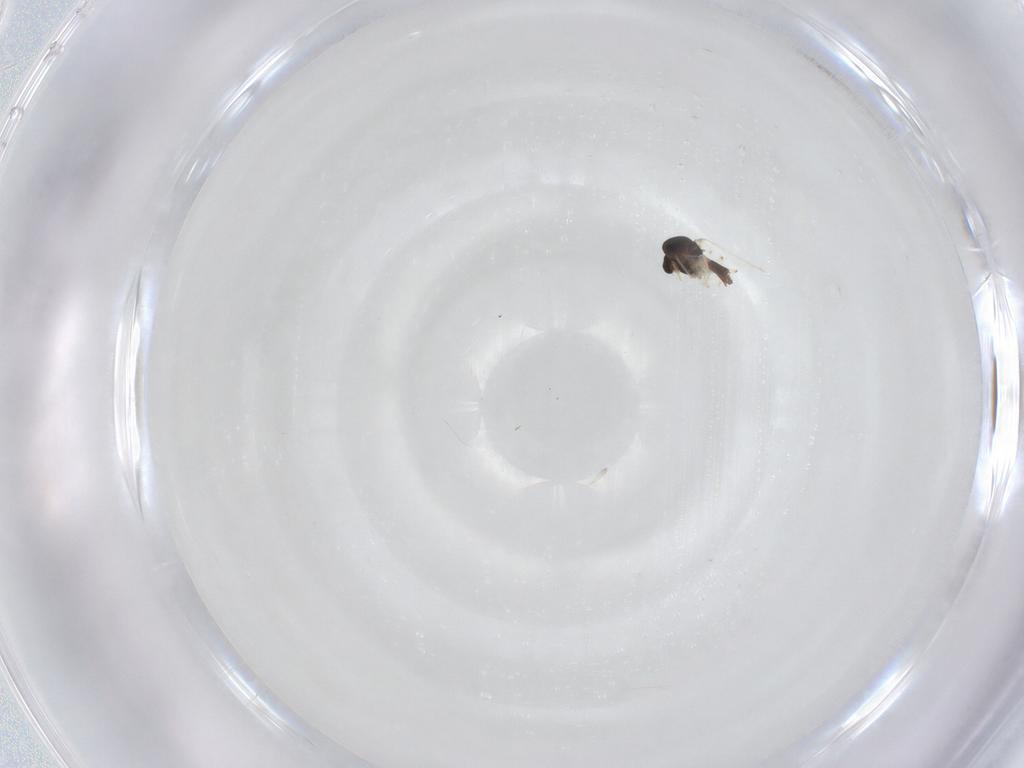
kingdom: Animalia
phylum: Arthropoda
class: Insecta
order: Diptera
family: Chironomidae
